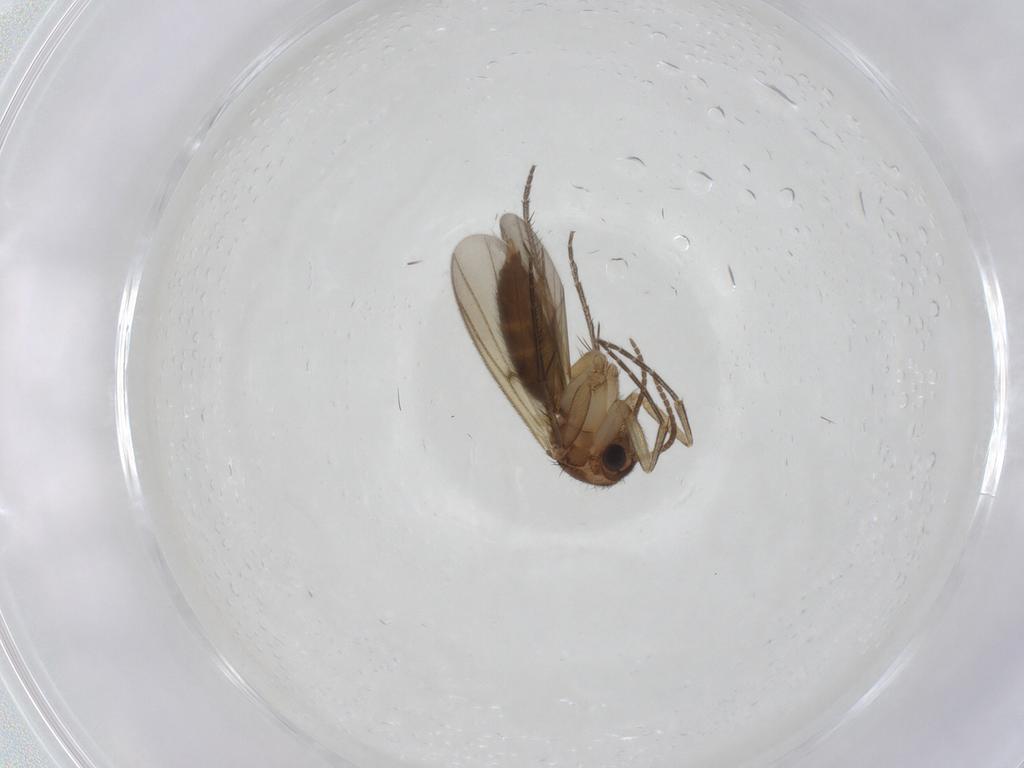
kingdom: Animalia
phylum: Arthropoda
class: Insecta
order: Diptera
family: Mycetophilidae
